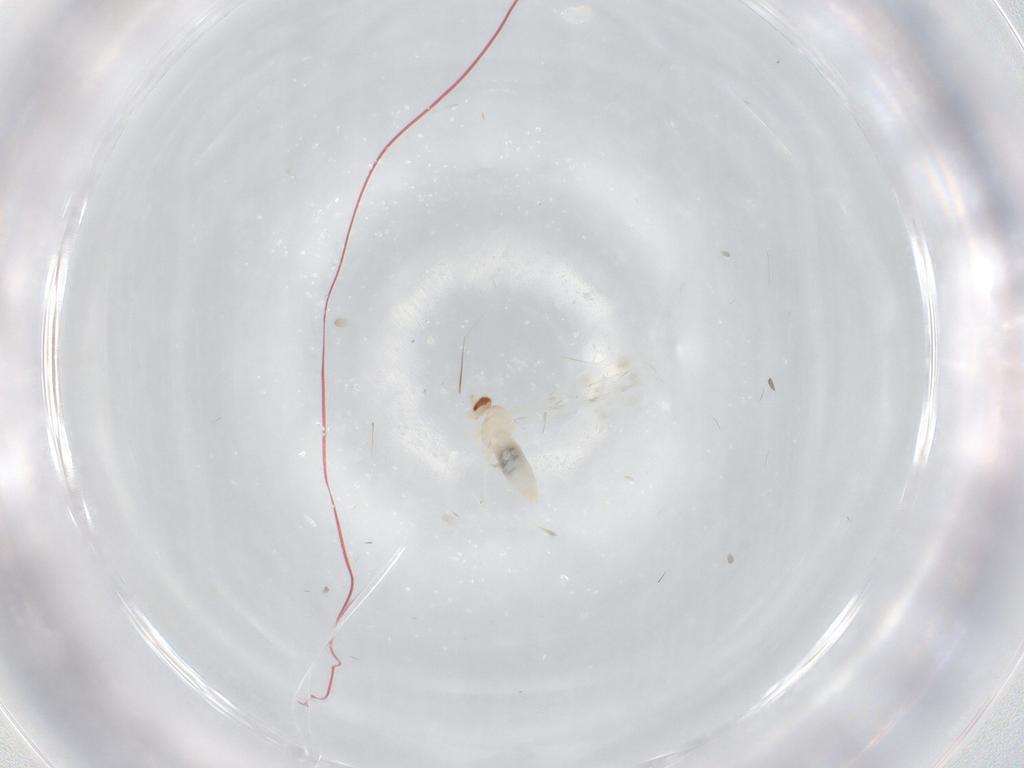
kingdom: Animalia
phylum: Arthropoda
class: Insecta
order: Diptera
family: Cecidomyiidae
